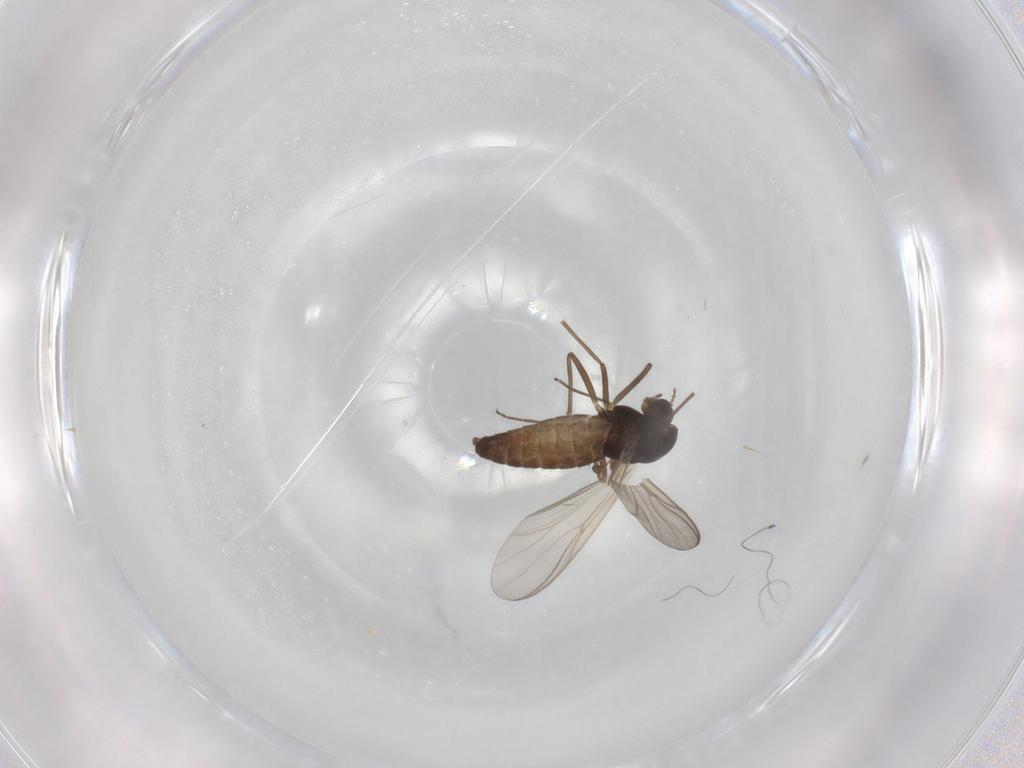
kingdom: Animalia
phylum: Arthropoda
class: Insecta
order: Diptera
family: Chironomidae
